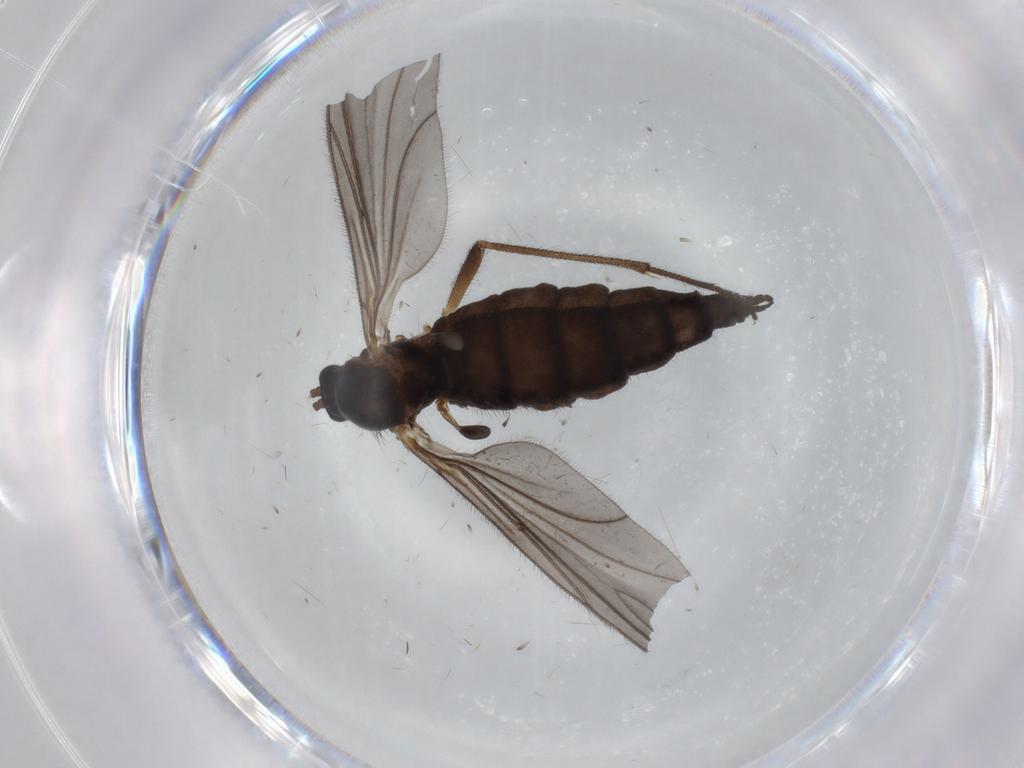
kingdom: Animalia
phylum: Arthropoda
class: Insecta
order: Diptera
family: Sciaridae
